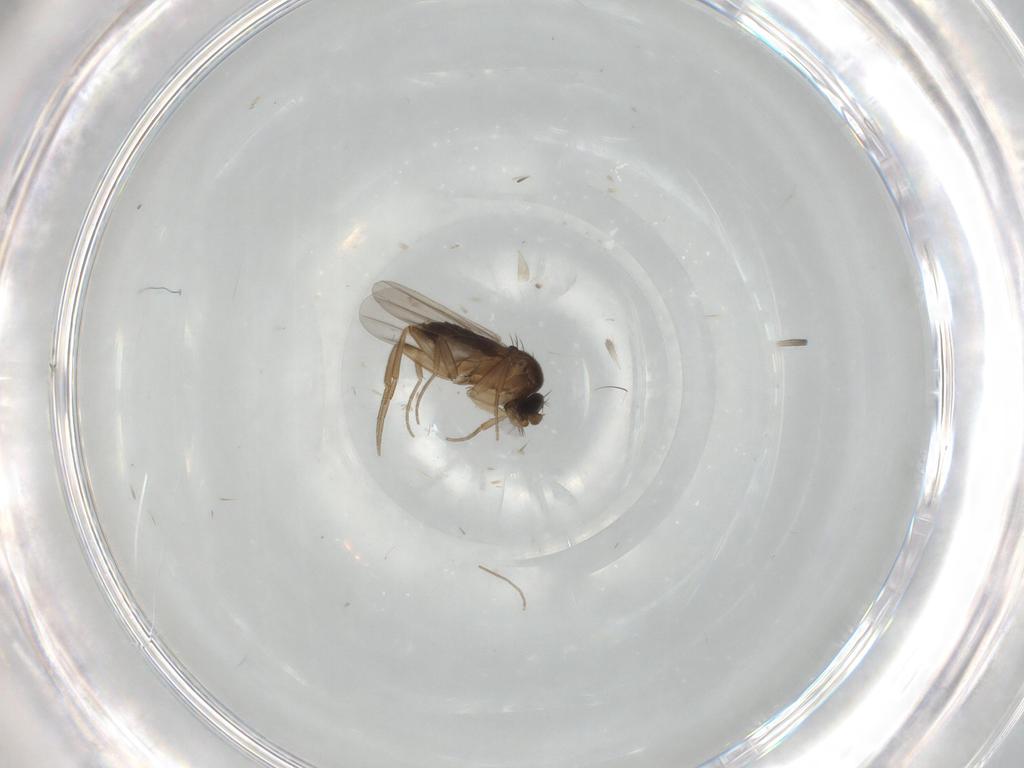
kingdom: Animalia
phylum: Arthropoda
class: Insecta
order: Diptera
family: Phoridae
